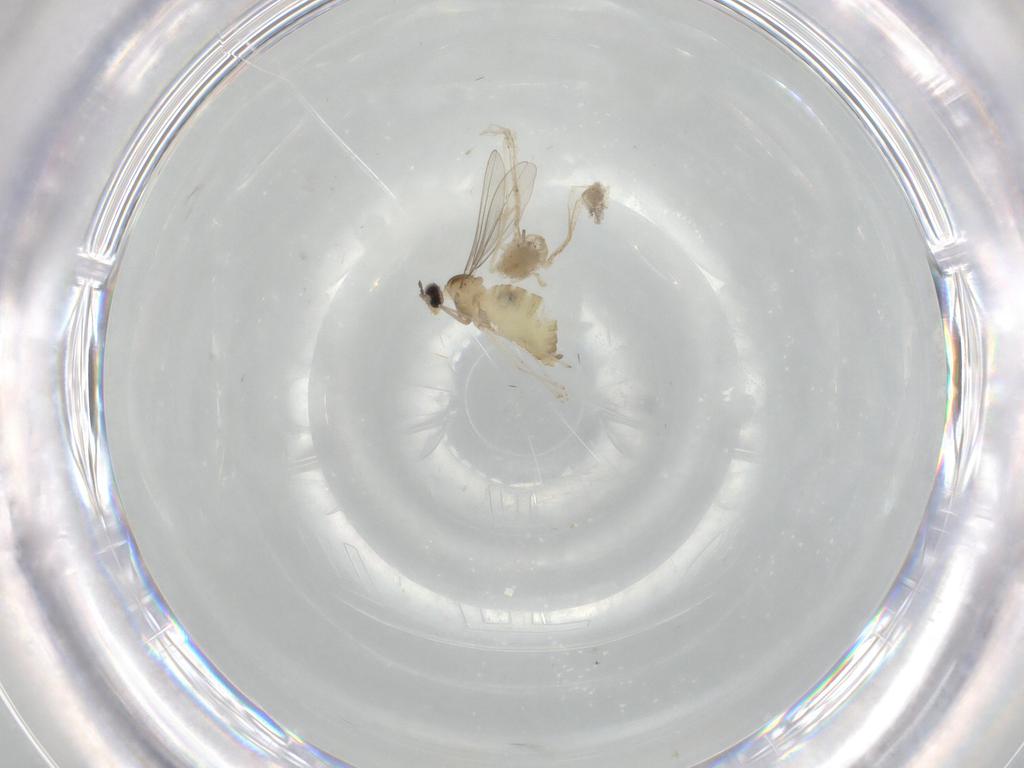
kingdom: Animalia
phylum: Arthropoda
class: Insecta
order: Diptera
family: Cecidomyiidae
